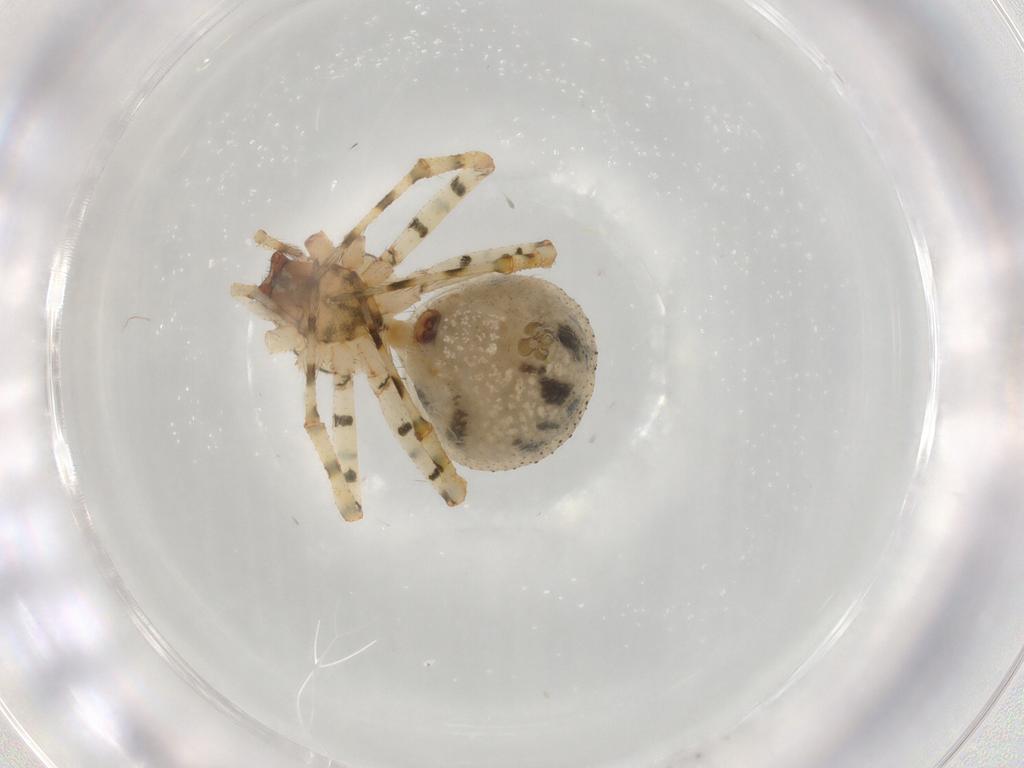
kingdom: Animalia
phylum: Arthropoda
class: Arachnida
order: Araneae
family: Theridiidae
